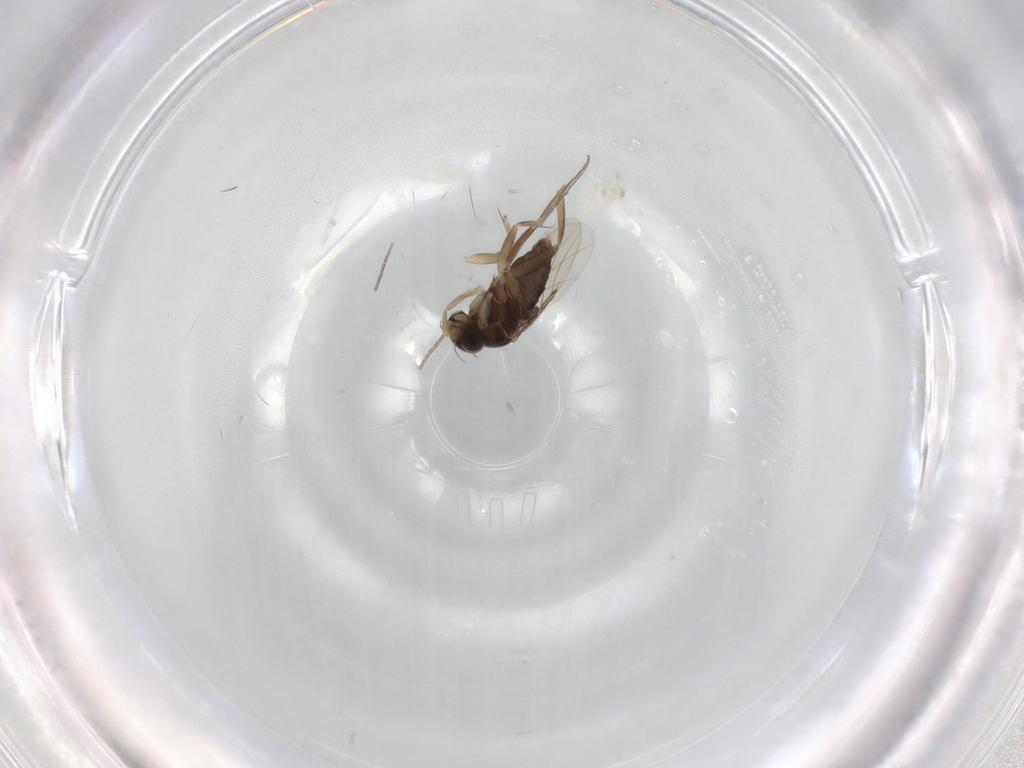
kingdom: Animalia
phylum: Arthropoda
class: Insecta
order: Diptera
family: Phoridae
